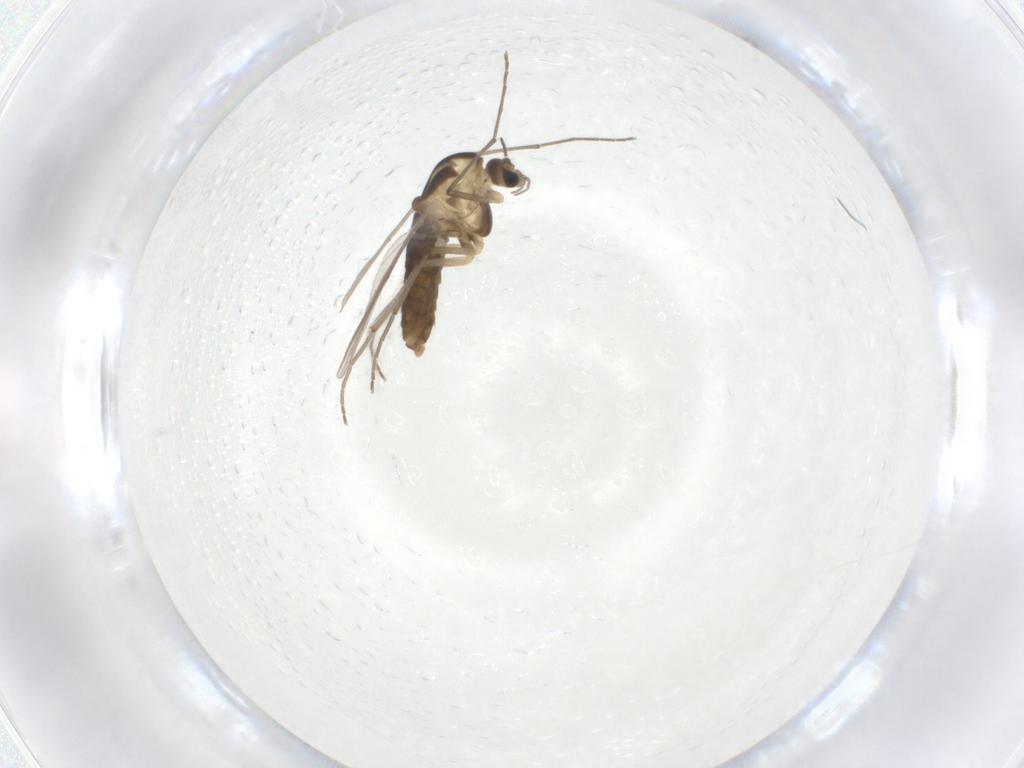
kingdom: Animalia
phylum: Arthropoda
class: Insecta
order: Diptera
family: Chironomidae
